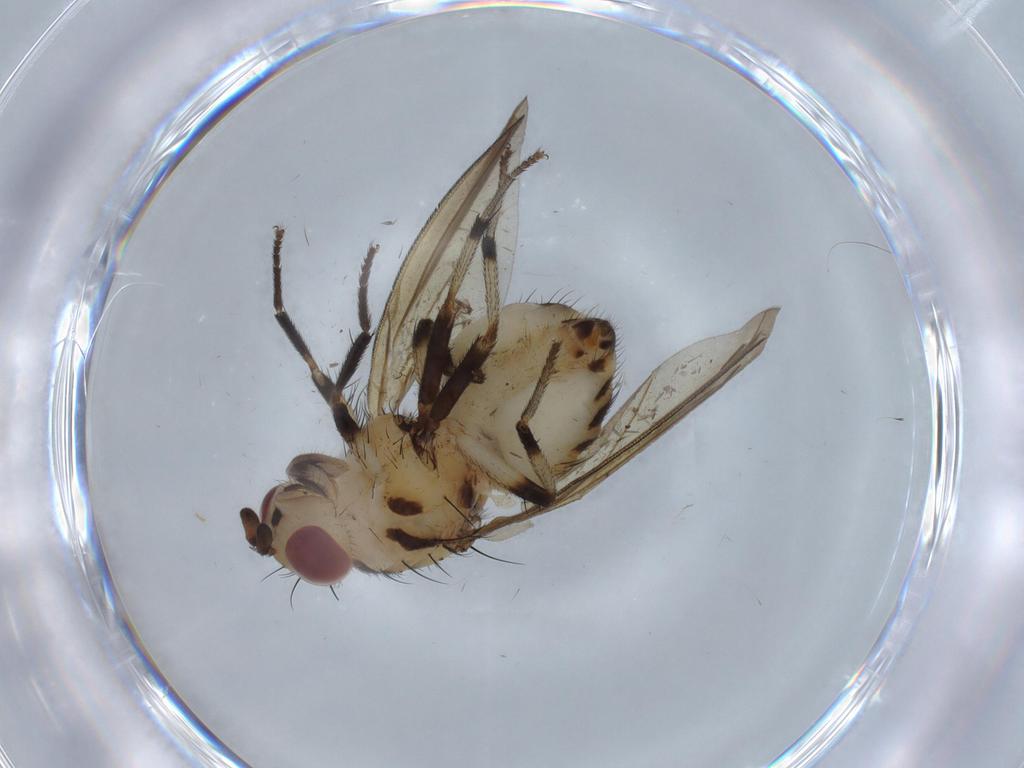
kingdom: Animalia
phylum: Arthropoda
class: Insecta
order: Diptera
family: Lauxaniidae
